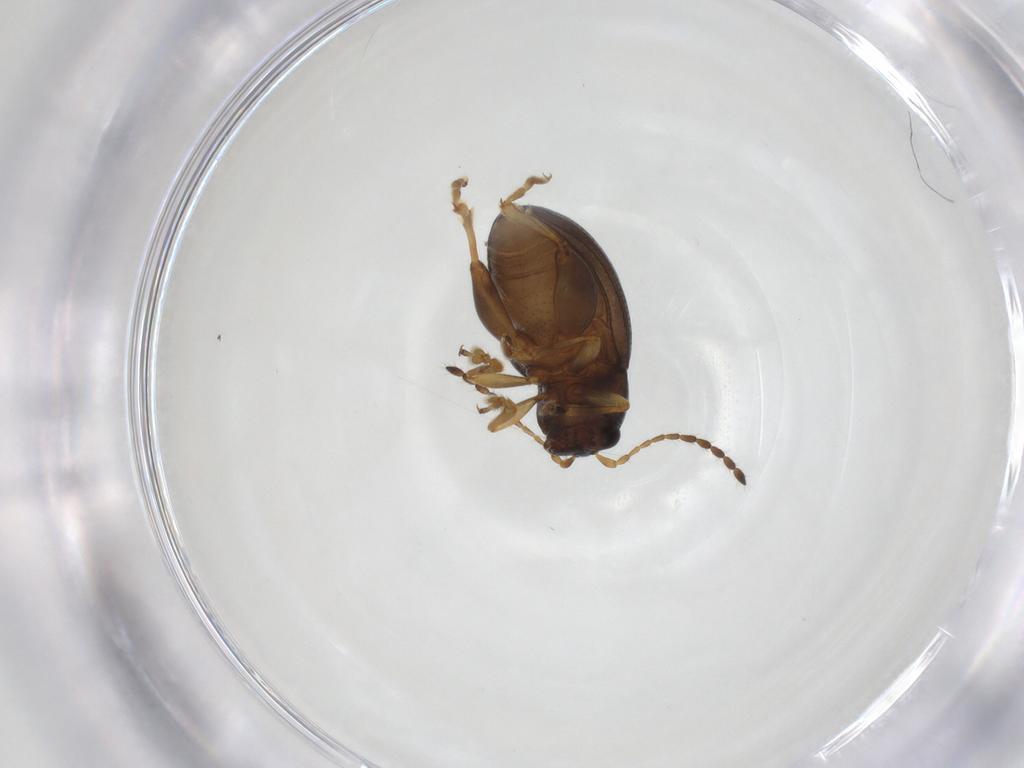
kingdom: Animalia
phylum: Arthropoda
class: Insecta
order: Coleoptera
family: Chrysomelidae
